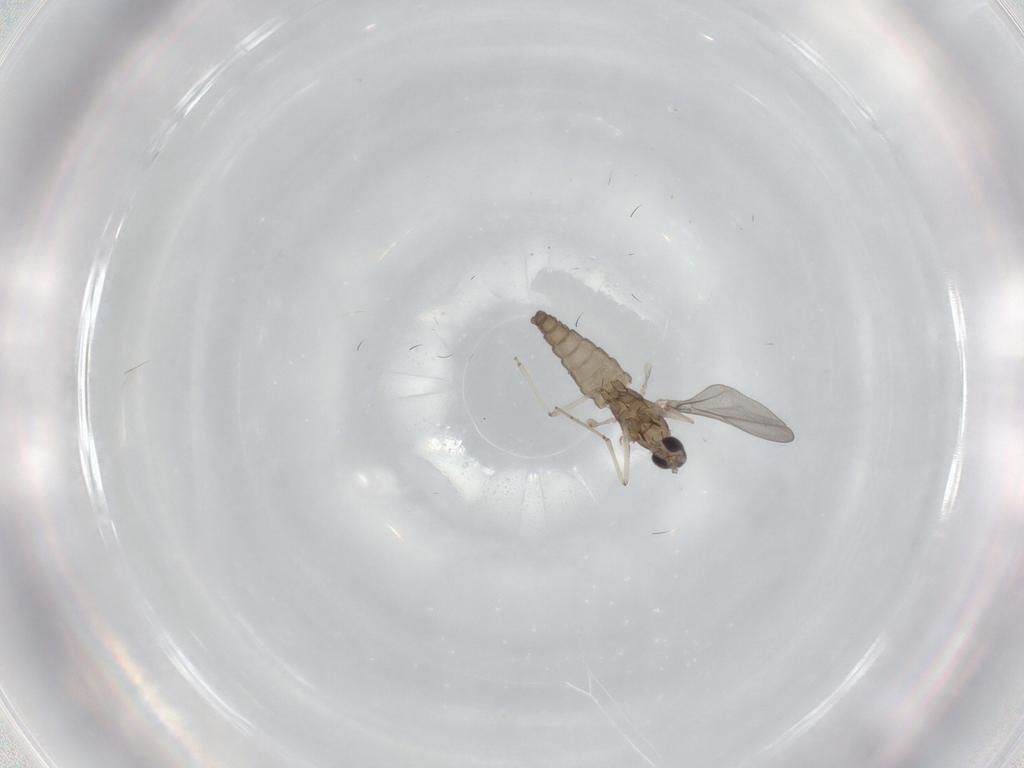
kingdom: Animalia
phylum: Arthropoda
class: Insecta
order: Diptera
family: Cecidomyiidae
